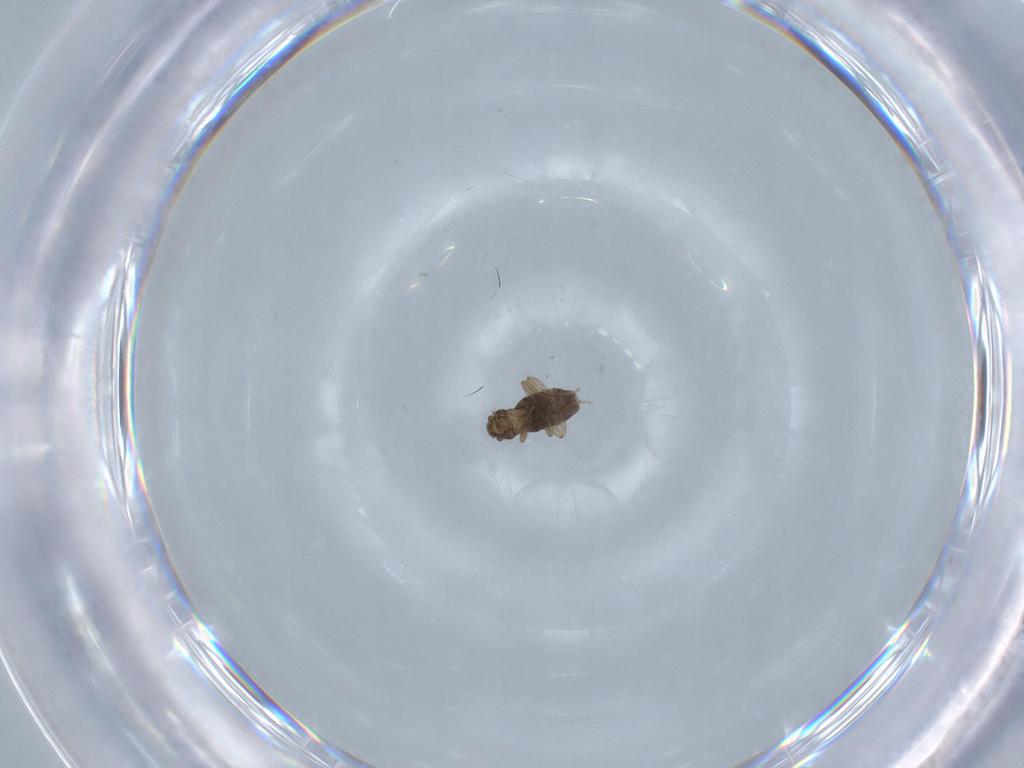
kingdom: Animalia
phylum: Arthropoda
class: Insecta
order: Diptera
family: Phoridae
